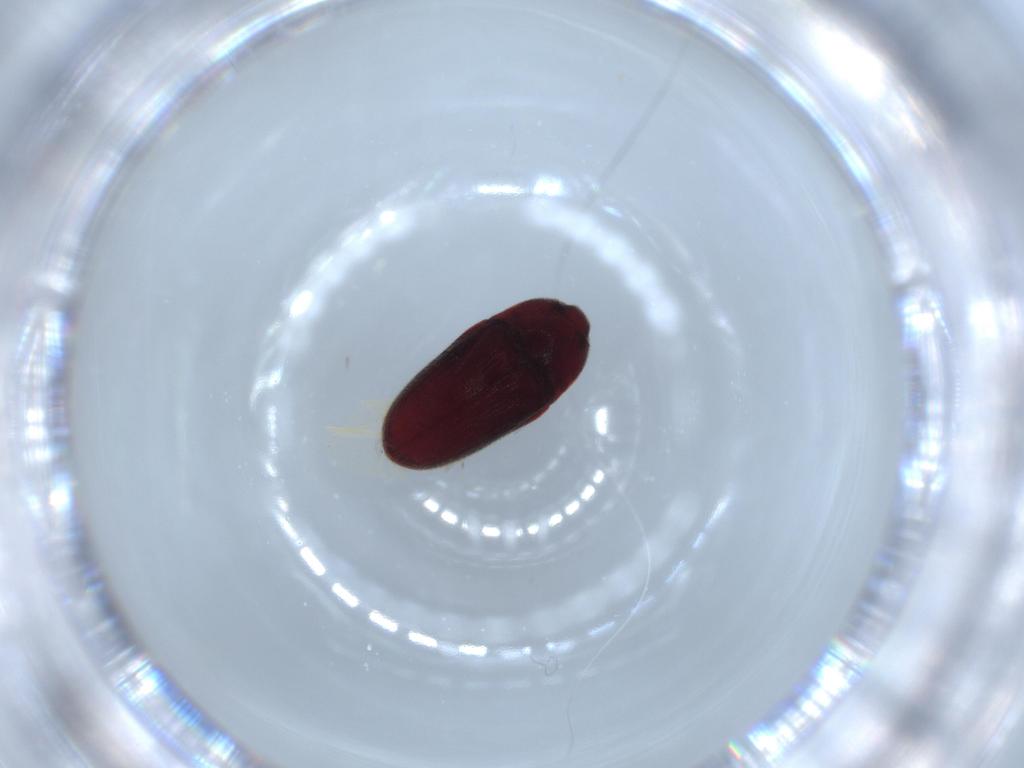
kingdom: Animalia
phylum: Arthropoda
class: Insecta
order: Coleoptera
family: Throscidae
